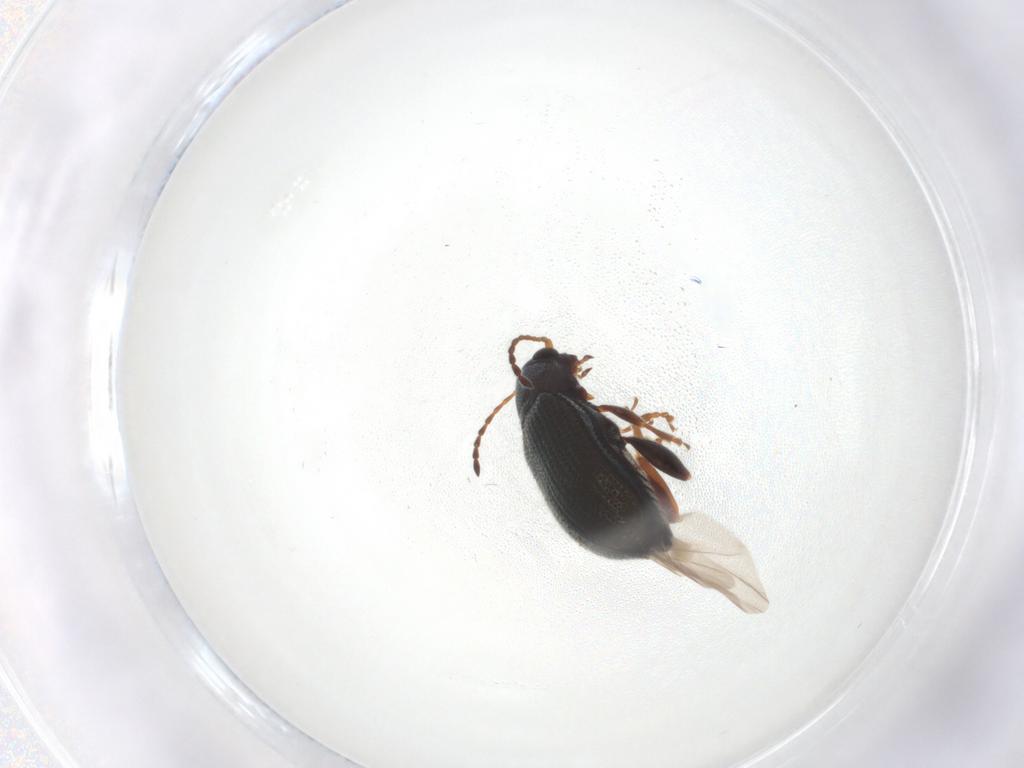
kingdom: Animalia
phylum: Arthropoda
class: Insecta
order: Coleoptera
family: Chrysomelidae
